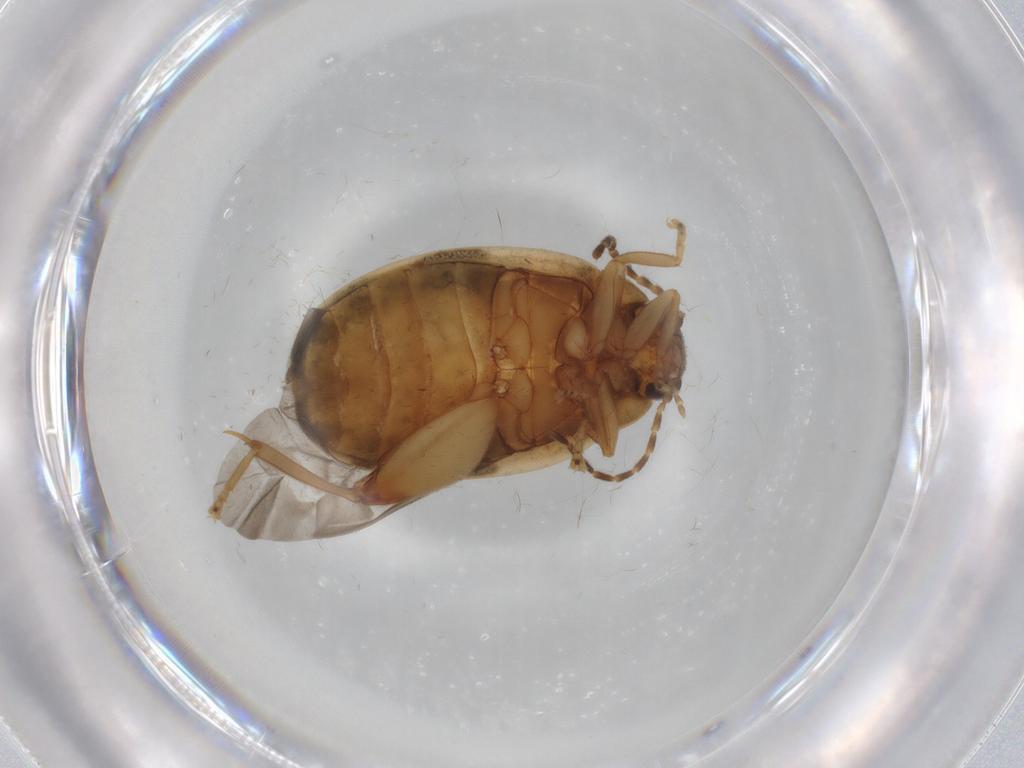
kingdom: Animalia
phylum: Arthropoda
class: Insecta
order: Coleoptera
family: Scirtidae
